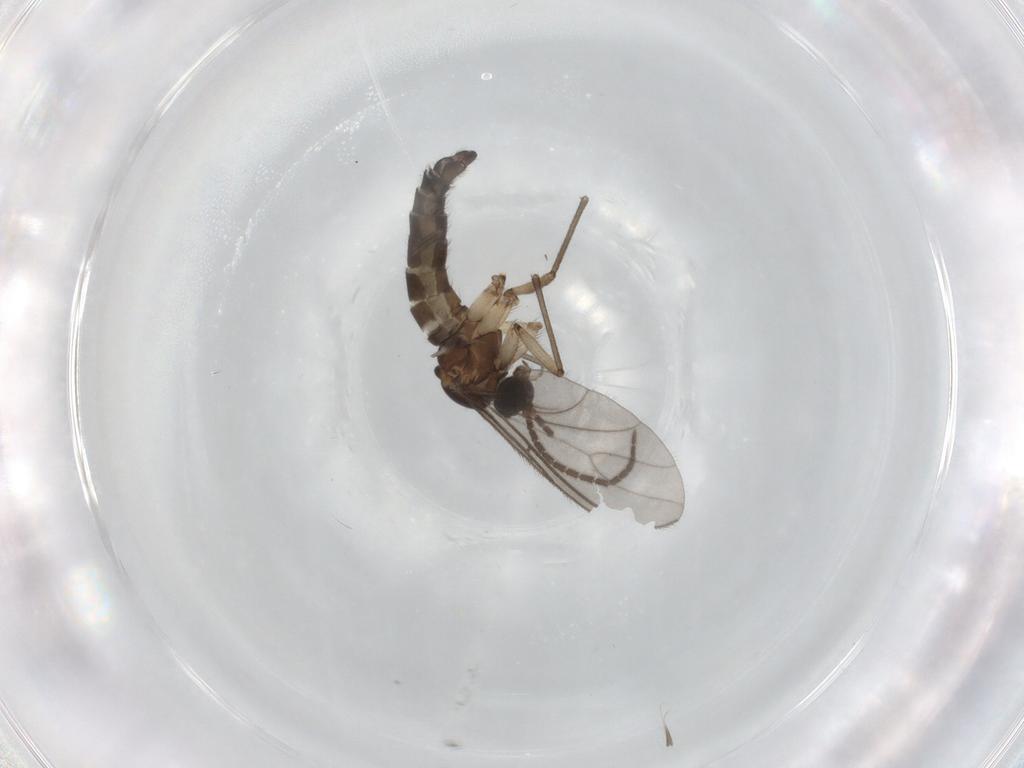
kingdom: Animalia
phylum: Arthropoda
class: Insecta
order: Diptera
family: Sciaridae
